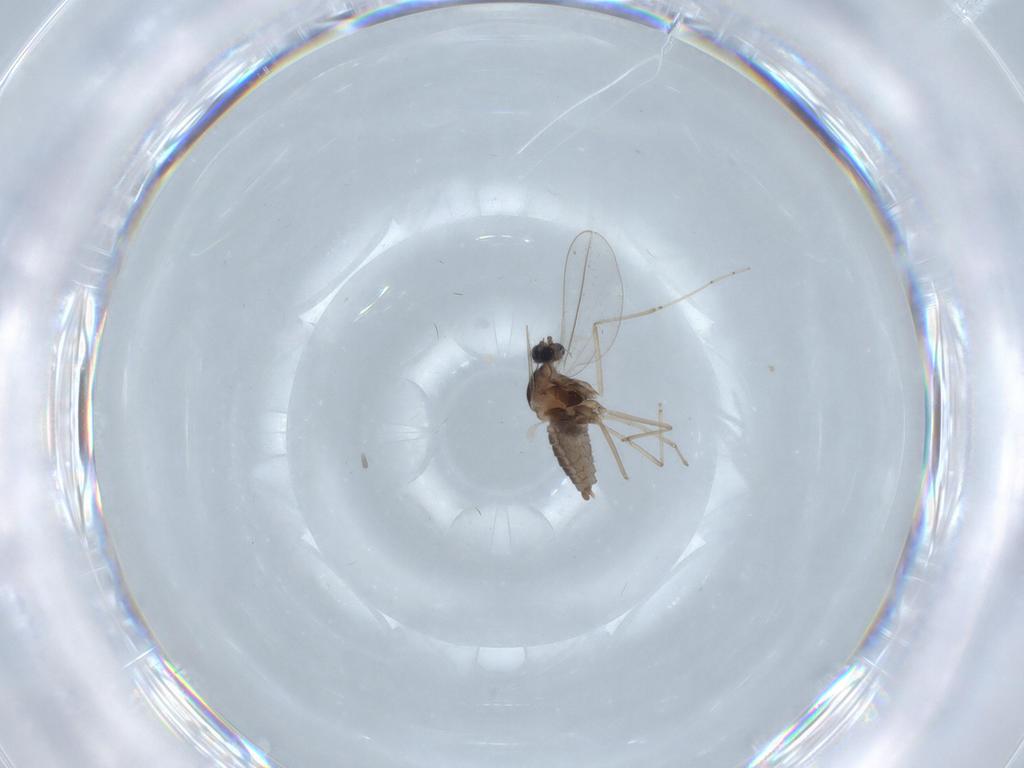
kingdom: Animalia
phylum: Arthropoda
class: Insecta
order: Diptera
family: Cecidomyiidae
